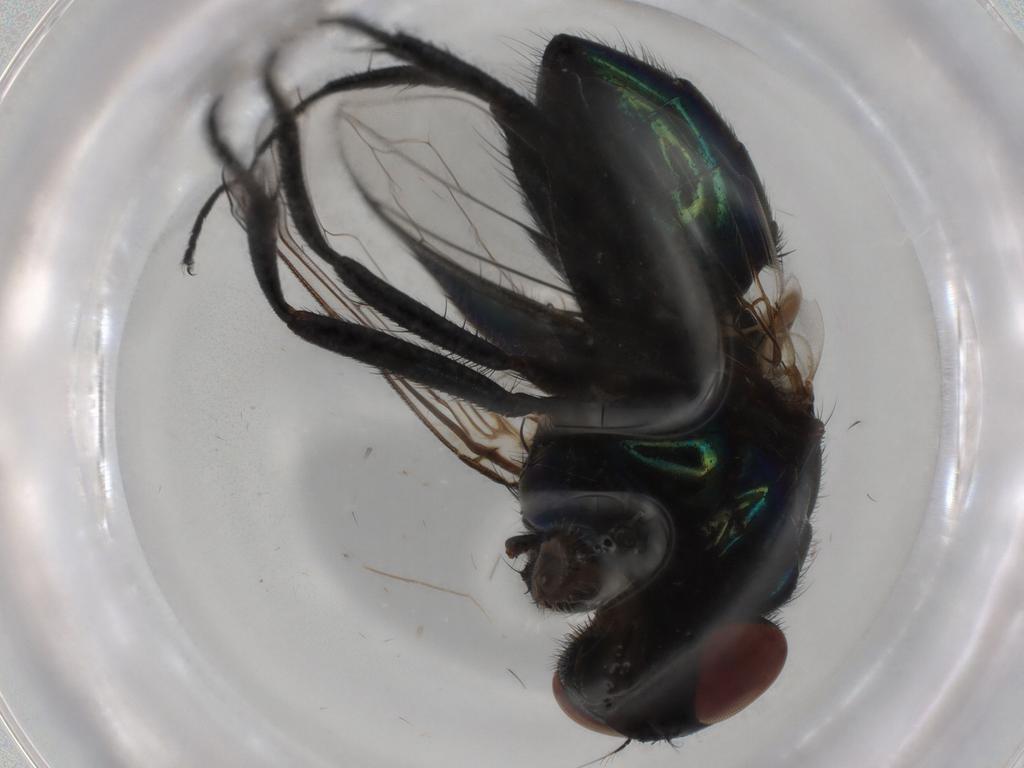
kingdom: Animalia
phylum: Arthropoda
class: Insecta
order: Diptera
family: Muscidae
